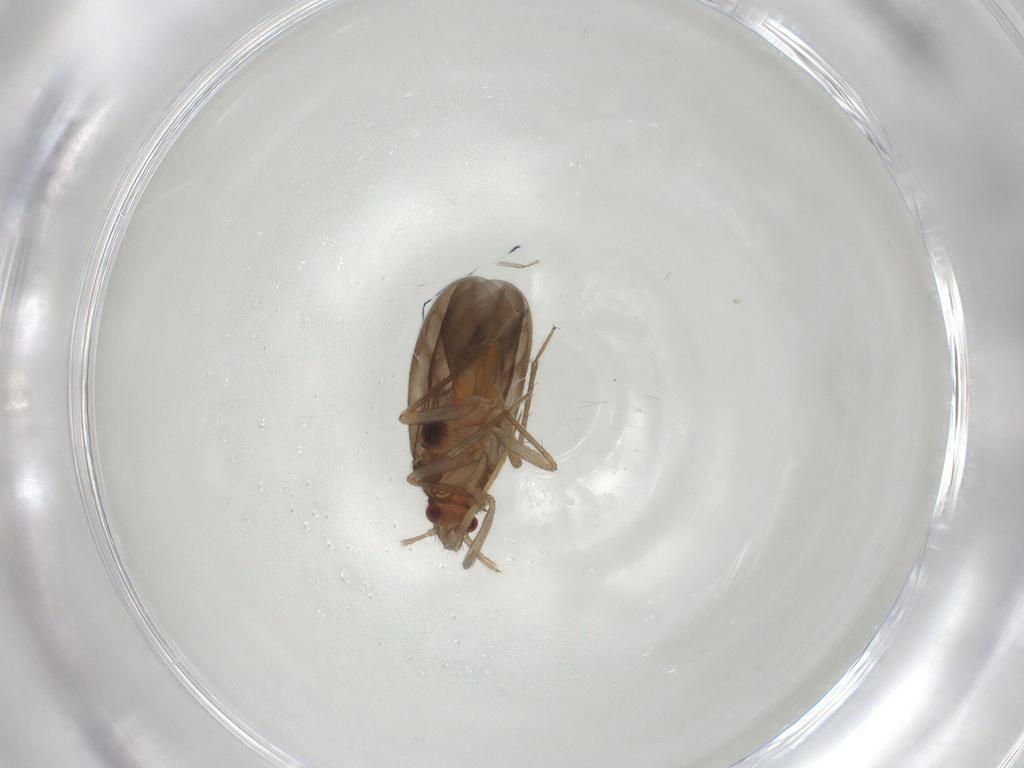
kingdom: Animalia
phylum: Arthropoda
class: Insecta
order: Hemiptera
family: Ceratocombidae
